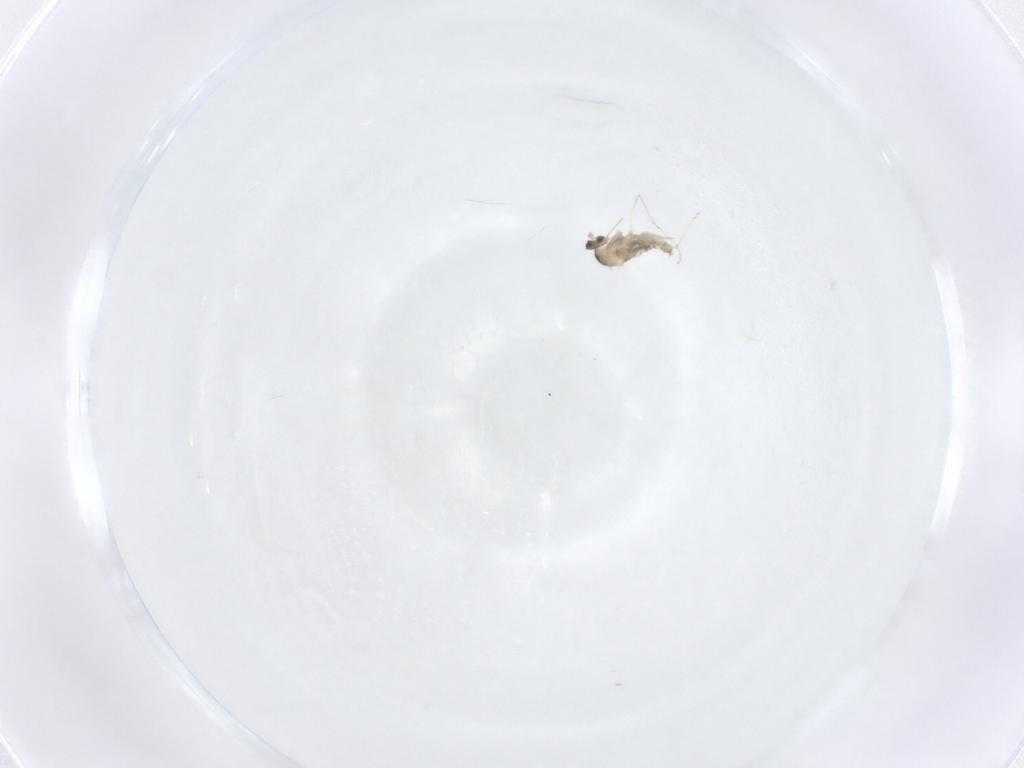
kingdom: Animalia
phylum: Arthropoda
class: Insecta
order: Diptera
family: Cecidomyiidae
